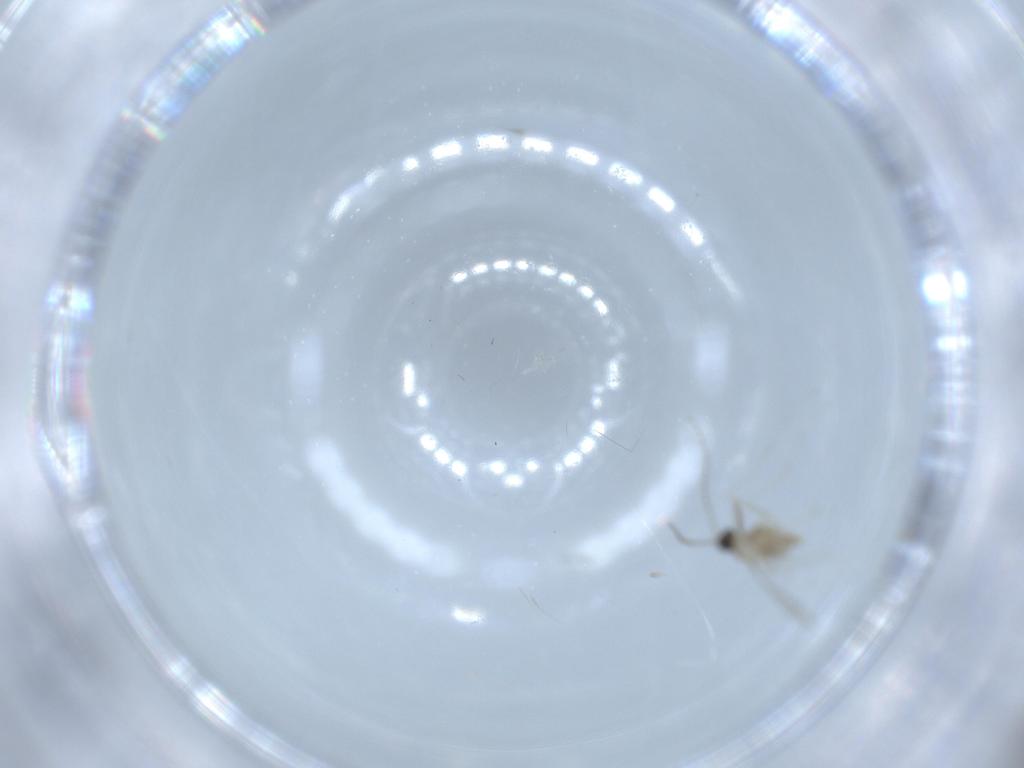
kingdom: Animalia
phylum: Arthropoda
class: Insecta
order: Diptera
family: Cecidomyiidae
